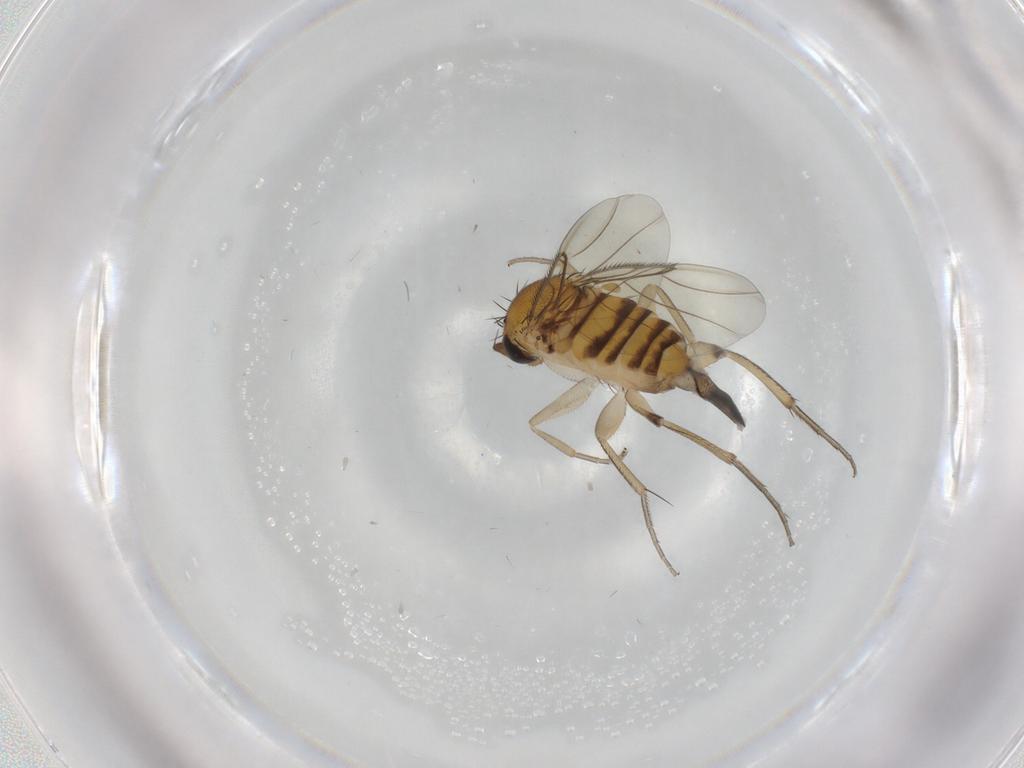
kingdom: Animalia
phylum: Arthropoda
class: Insecta
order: Diptera
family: Phoridae
